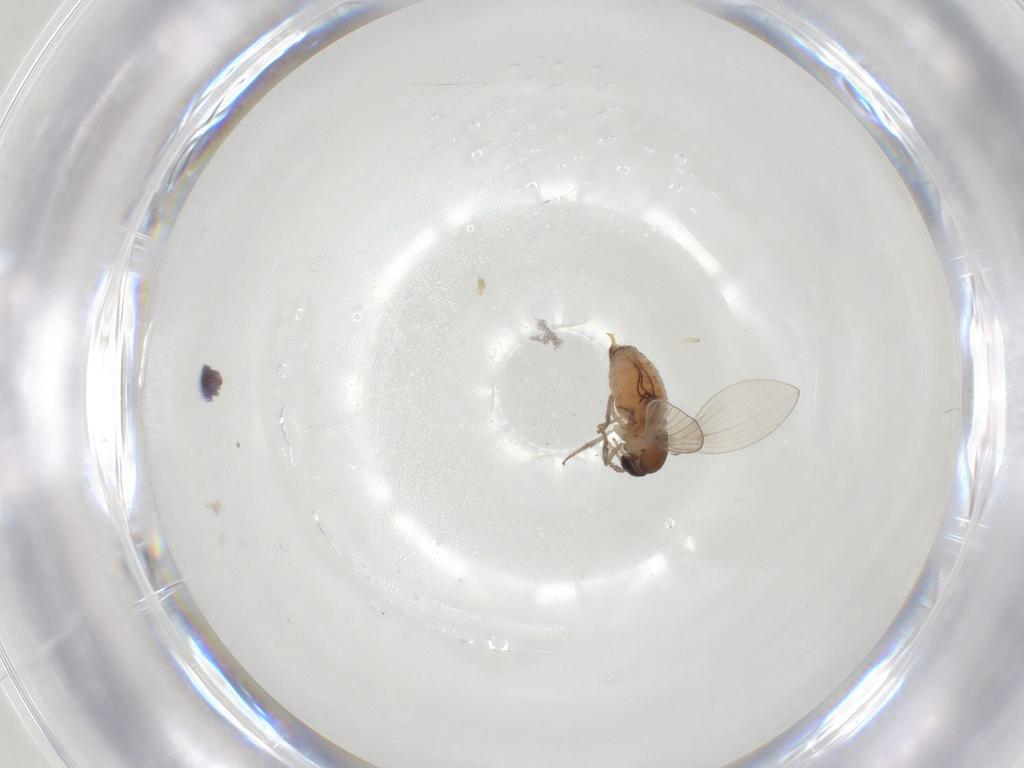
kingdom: Animalia
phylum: Arthropoda
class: Insecta
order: Diptera
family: Psychodidae
